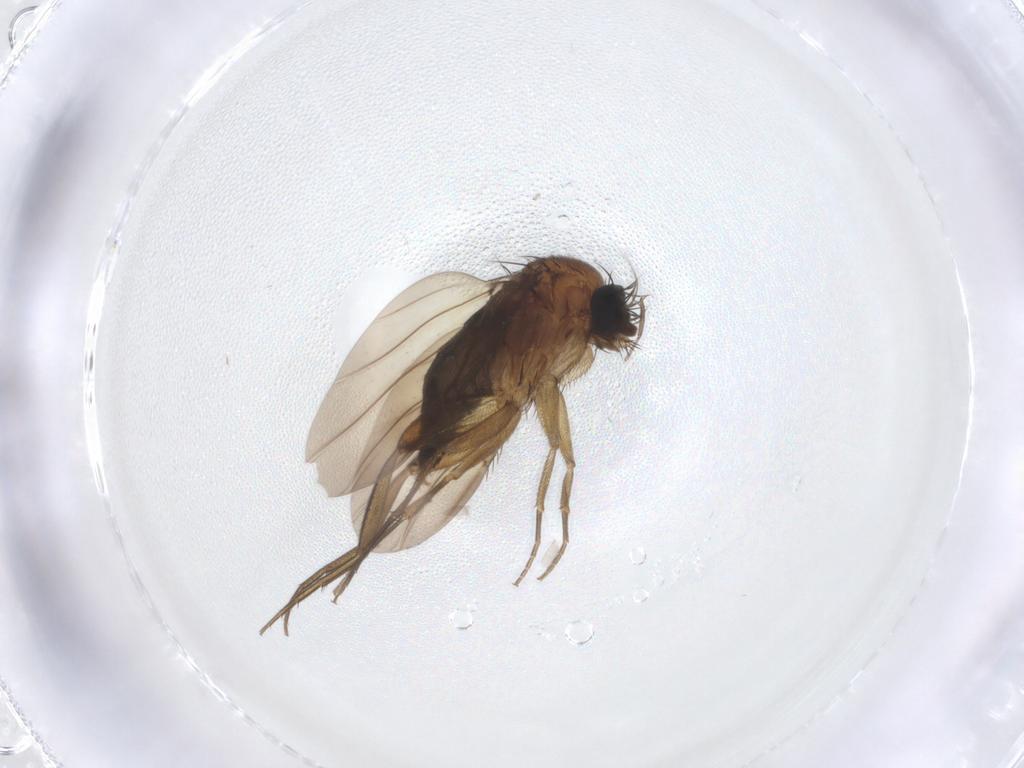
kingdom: Animalia
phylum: Arthropoda
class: Insecta
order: Diptera
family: Phoridae
